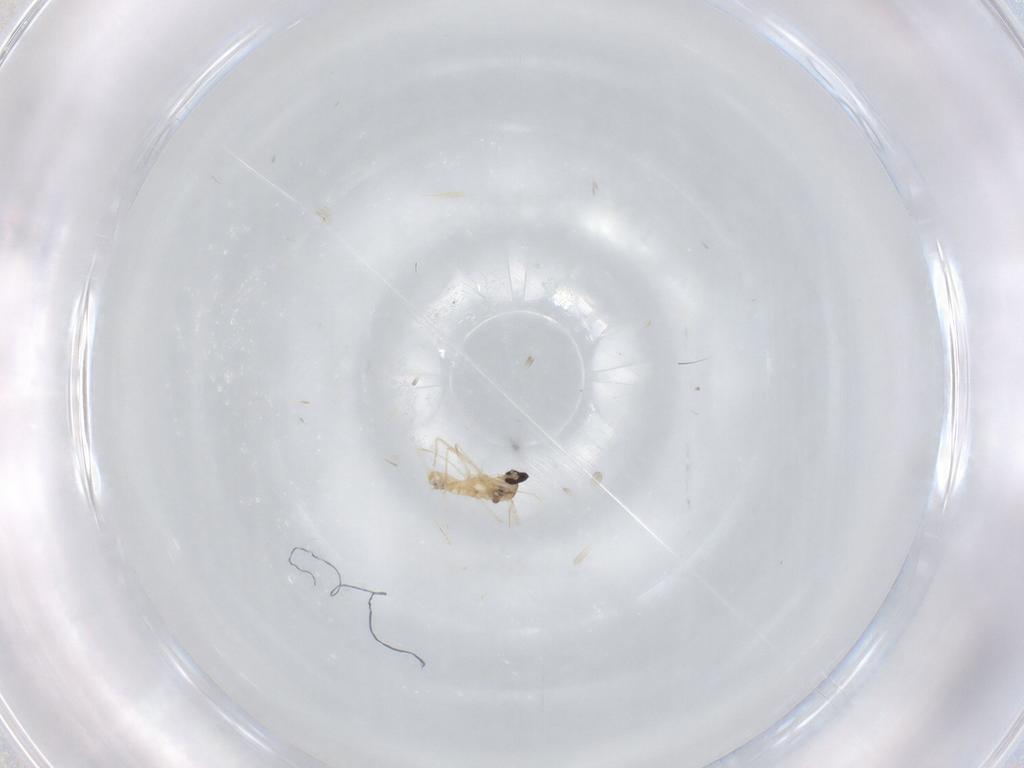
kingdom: Animalia
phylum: Arthropoda
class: Insecta
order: Diptera
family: Cecidomyiidae
